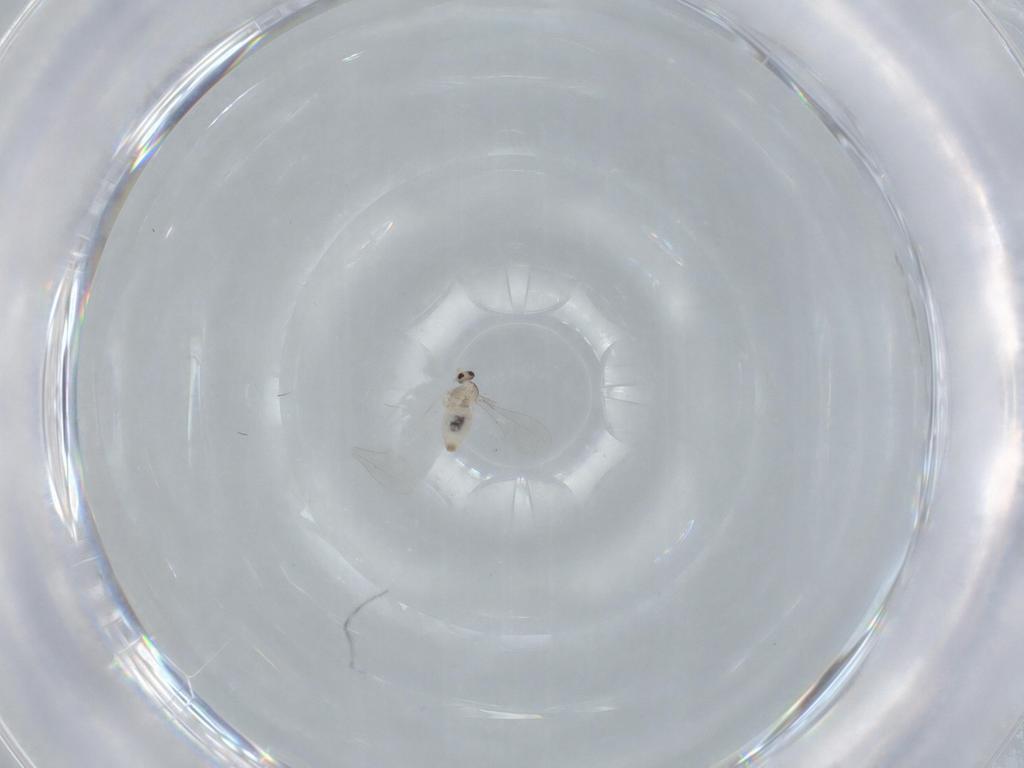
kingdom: Animalia
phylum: Arthropoda
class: Insecta
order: Diptera
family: Cecidomyiidae
